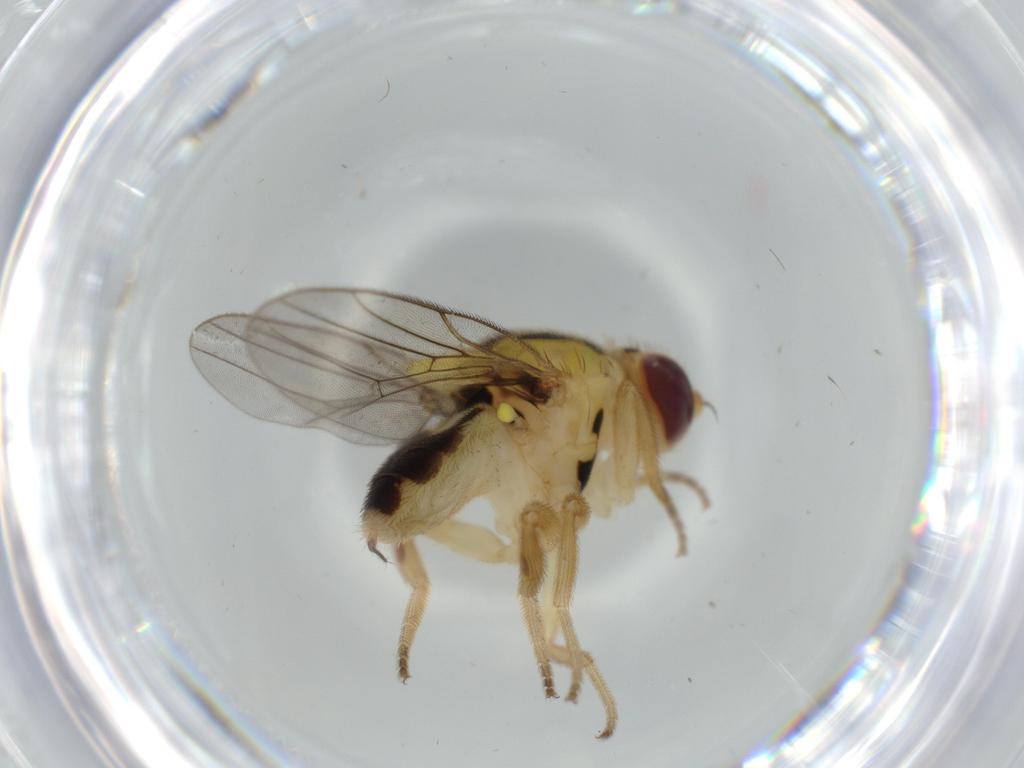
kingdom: Animalia
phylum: Arthropoda
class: Insecta
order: Diptera
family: Chloropidae
